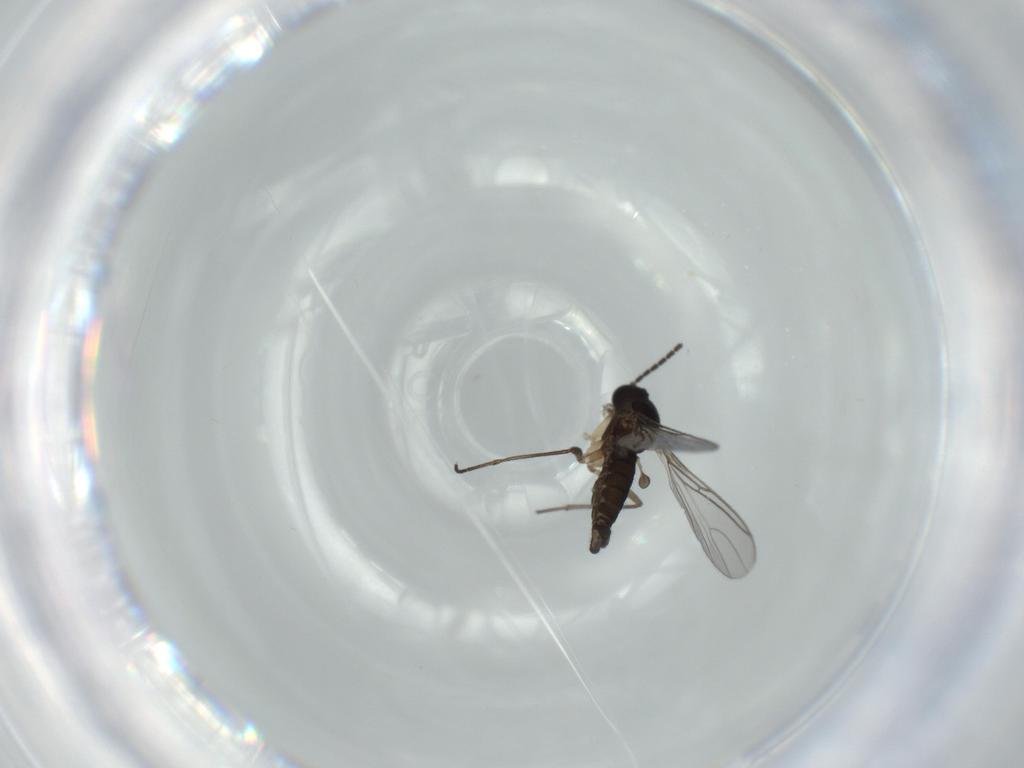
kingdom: Animalia
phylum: Arthropoda
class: Insecta
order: Diptera
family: Sciaridae
